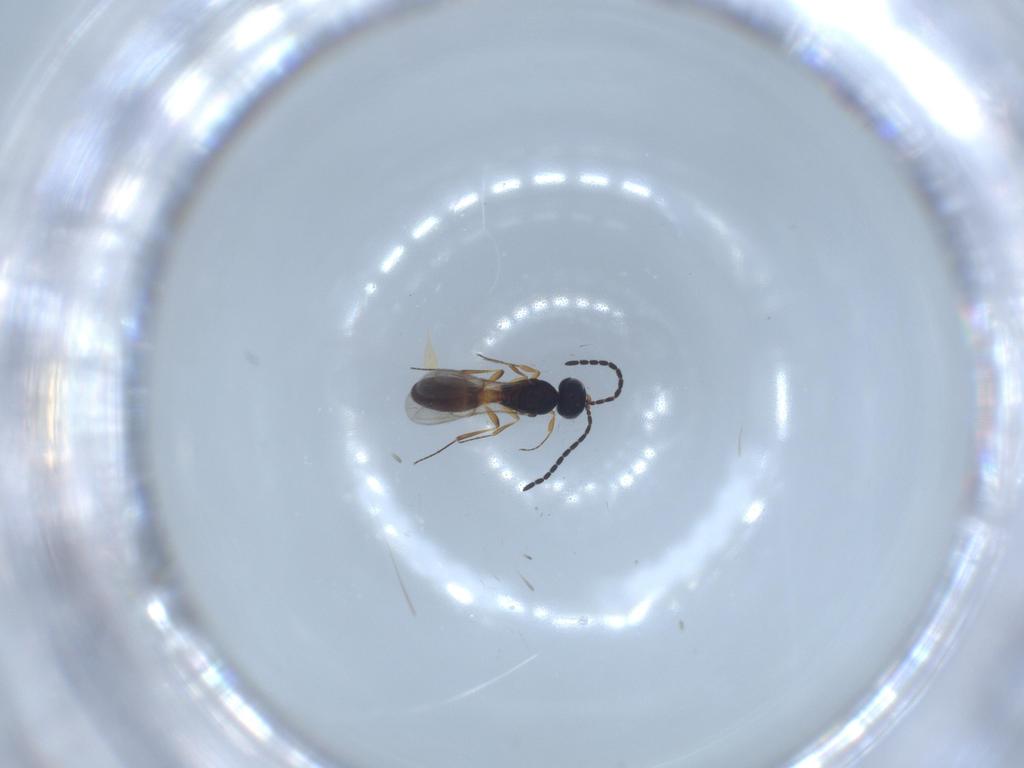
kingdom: Animalia
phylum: Arthropoda
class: Insecta
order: Hymenoptera
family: Scelionidae
